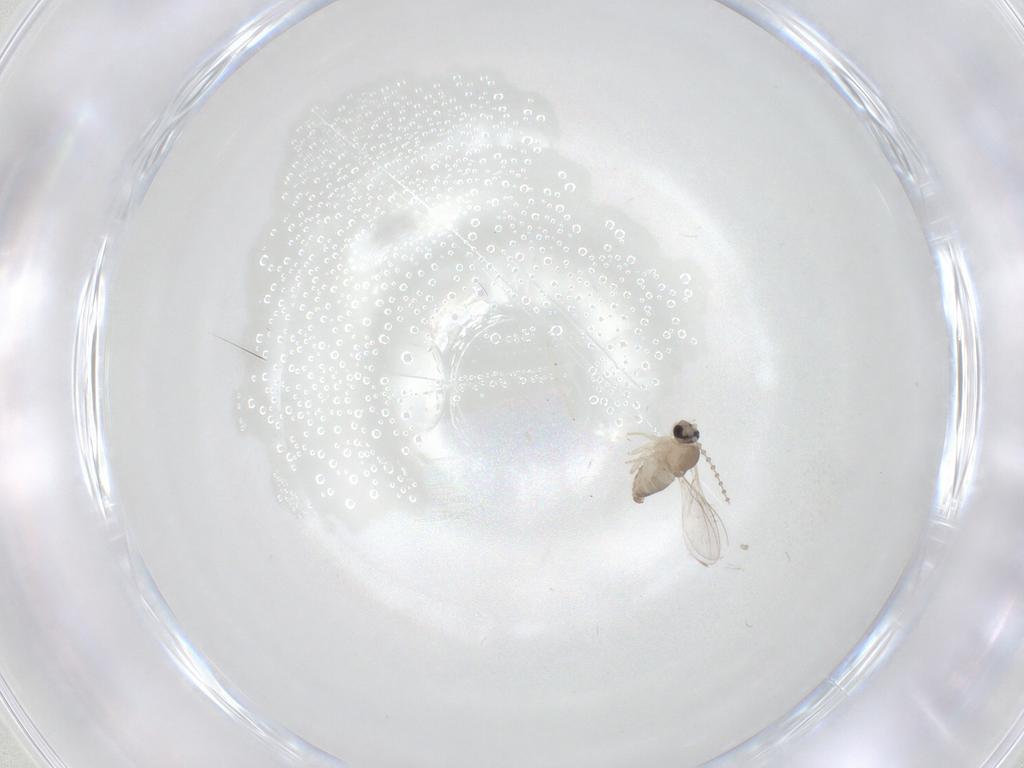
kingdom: Animalia
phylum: Arthropoda
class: Insecta
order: Diptera
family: Cecidomyiidae
